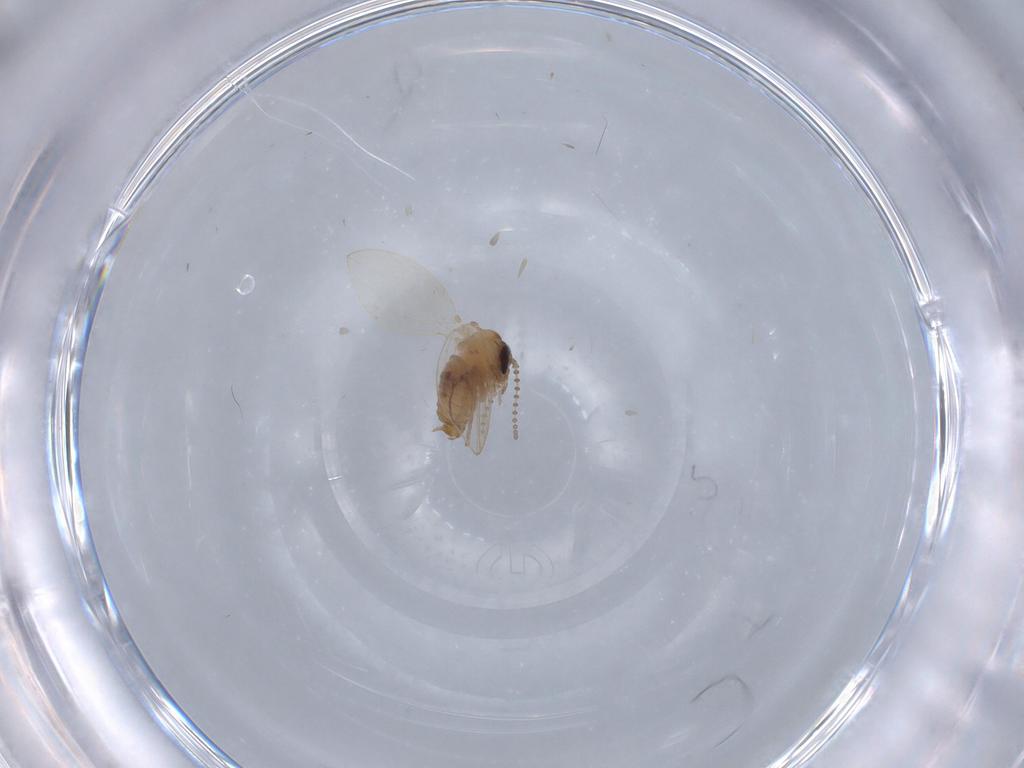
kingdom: Animalia
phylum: Arthropoda
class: Insecta
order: Diptera
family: Psychodidae
